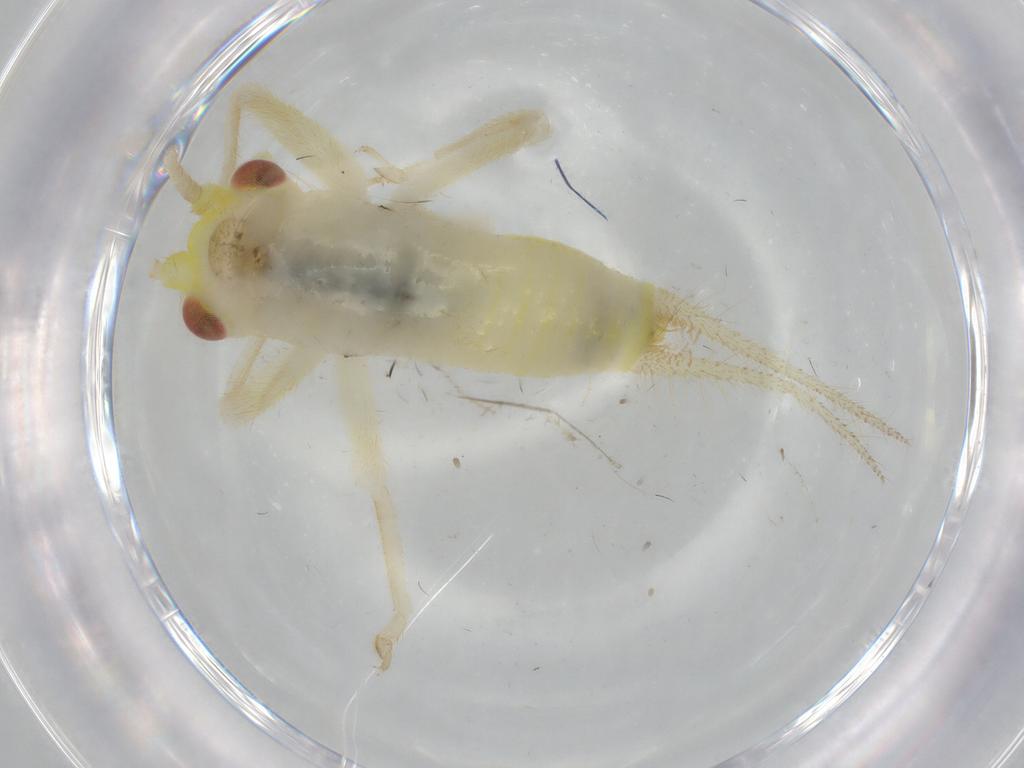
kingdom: Animalia
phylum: Arthropoda
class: Insecta
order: Orthoptera
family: Trigonidiidae
